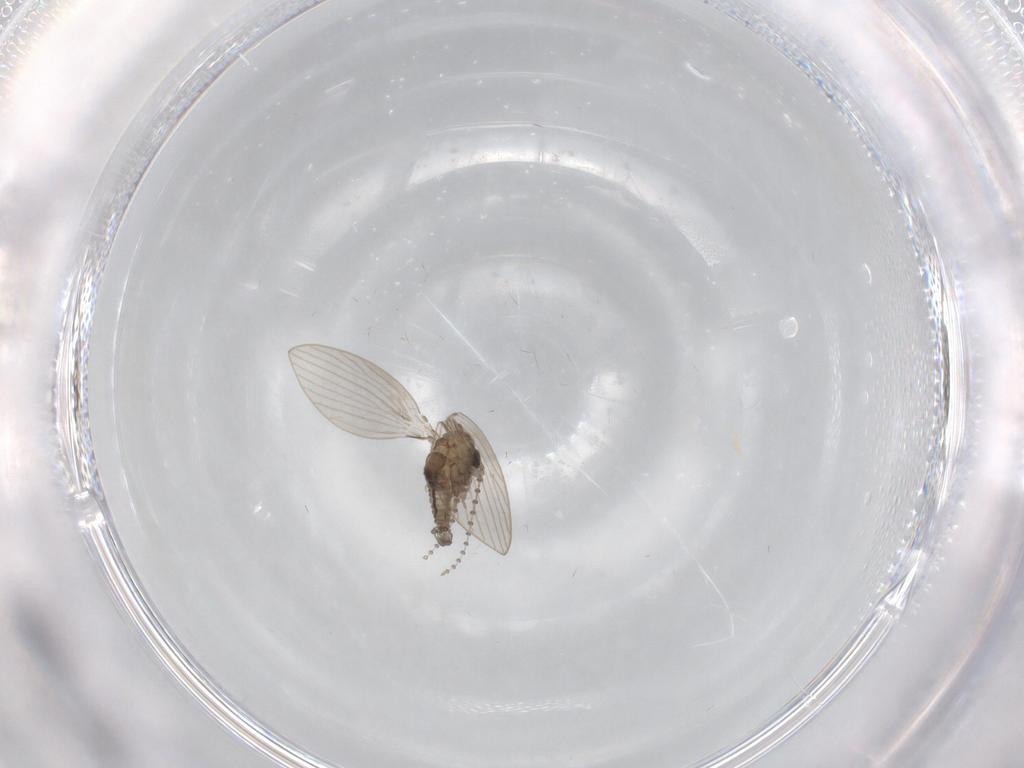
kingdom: Animalia
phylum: Arthropoda
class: Insecta
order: Diptera
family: Psychodidae
